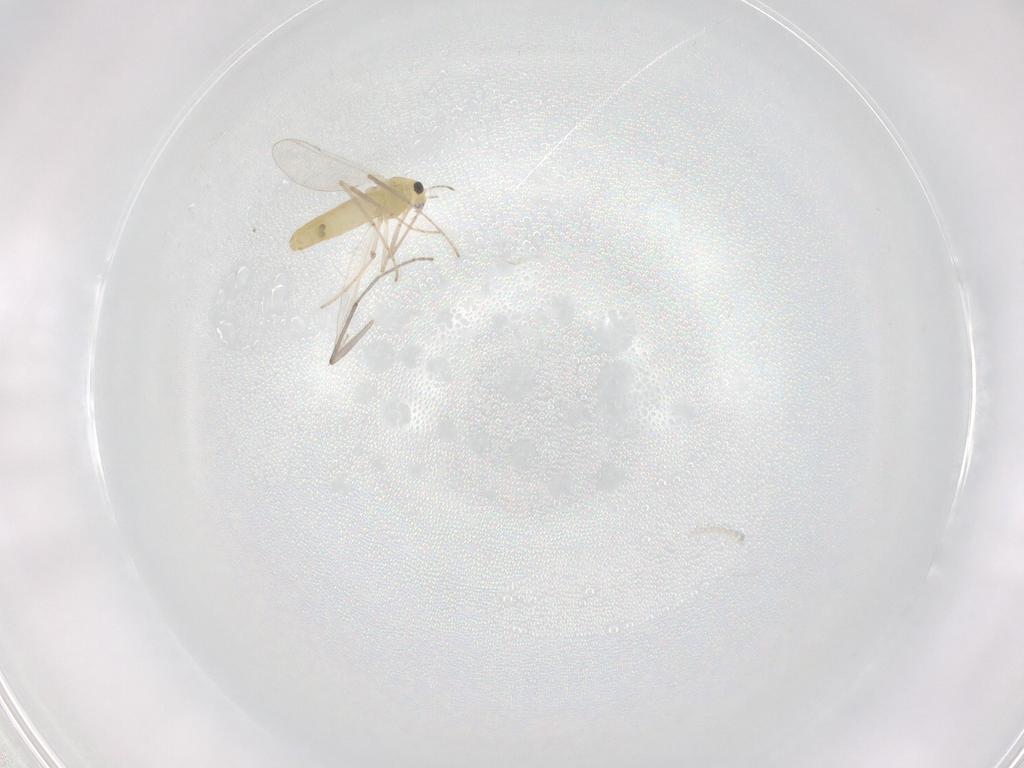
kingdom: Animalia
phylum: Arthropoda
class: Insecta
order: Diptera
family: Chironomidae
